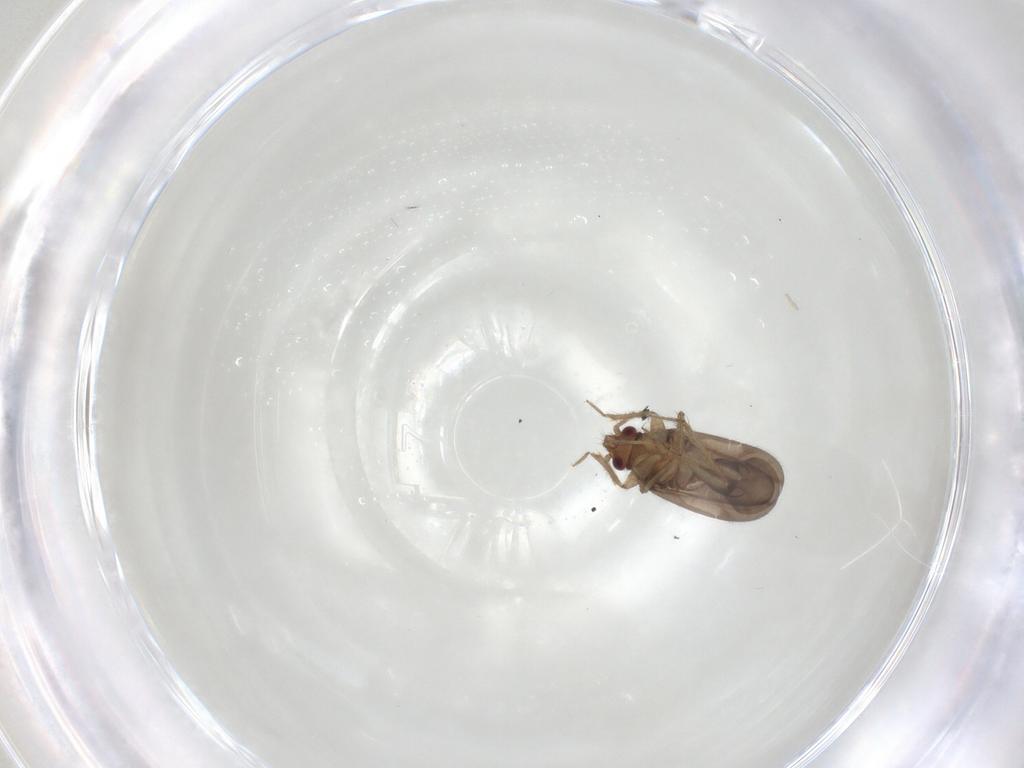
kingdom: Animalia
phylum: Arthropoda
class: Insecta
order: Hemiptera
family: Ceratocombidae
